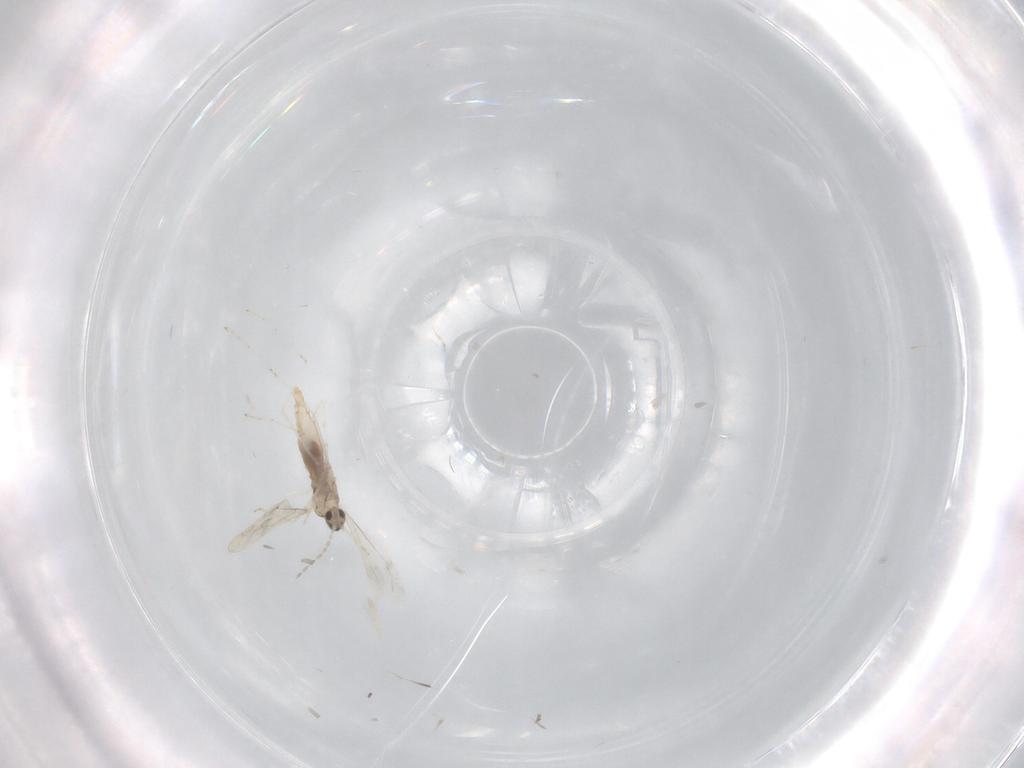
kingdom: Animalia
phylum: Arthropoda
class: Insecta
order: Diptera
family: Cecidomyiidae
